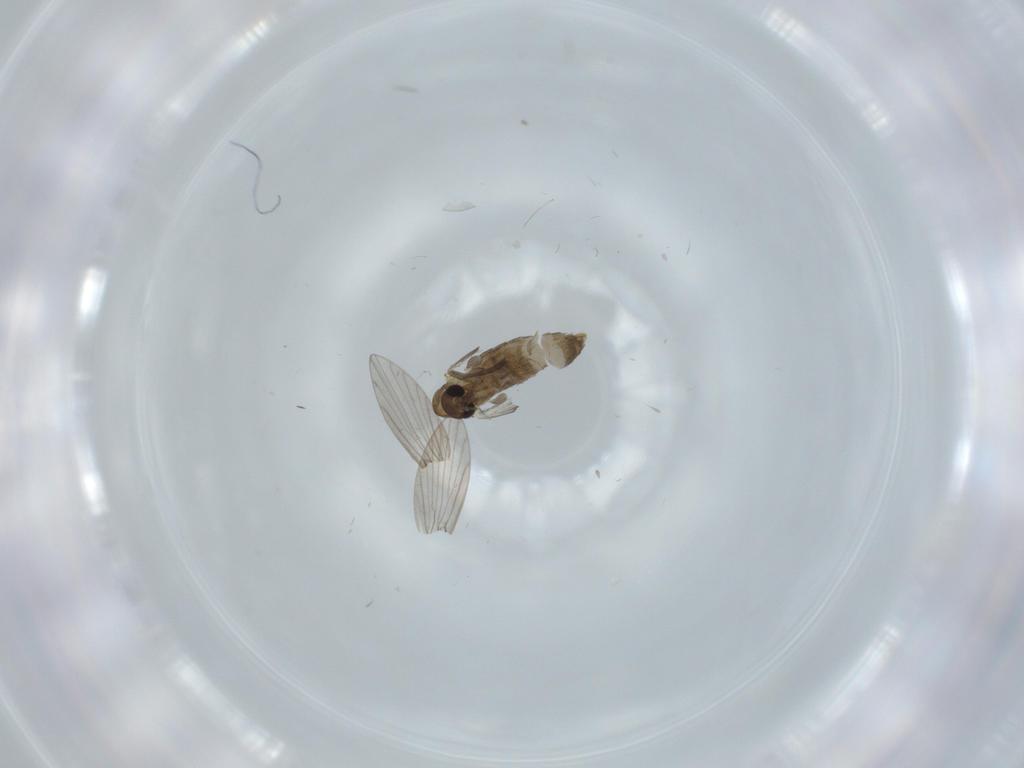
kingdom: Animalia
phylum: Arthropoda
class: Insecta
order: Diptera
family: Psychodidae
